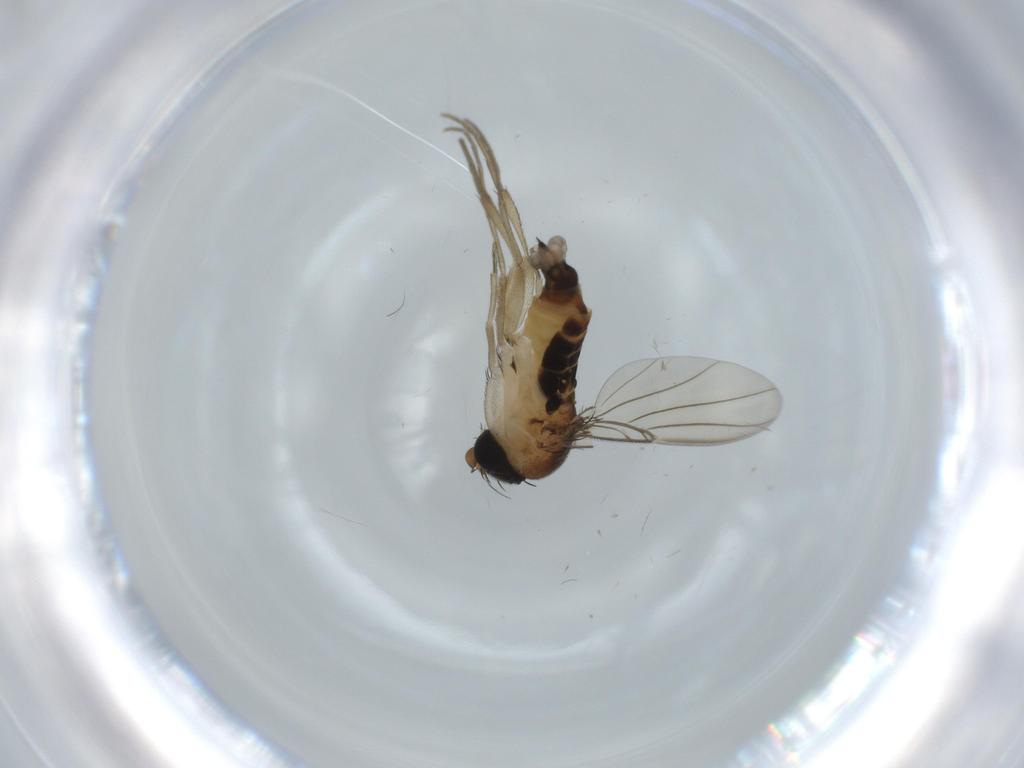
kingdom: Animalia
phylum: Arthropoda
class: Insecta
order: Diptera
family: Phoridae
